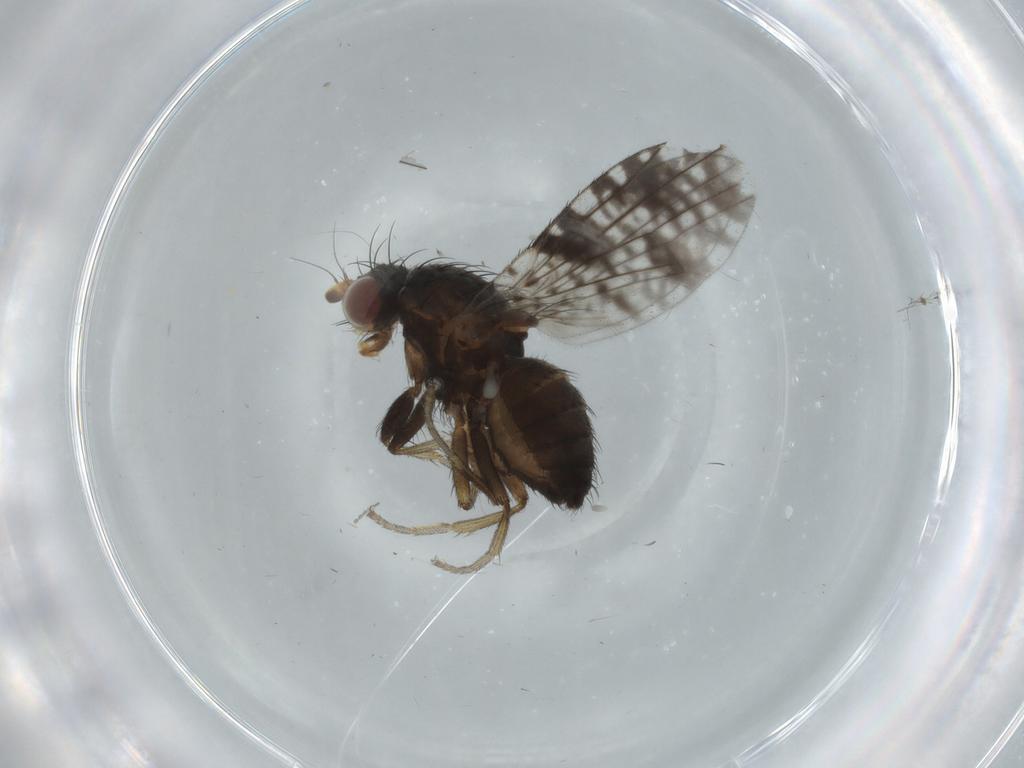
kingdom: Animalia
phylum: Arthropoda
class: Insecta
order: Diptera
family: Tephritidae
